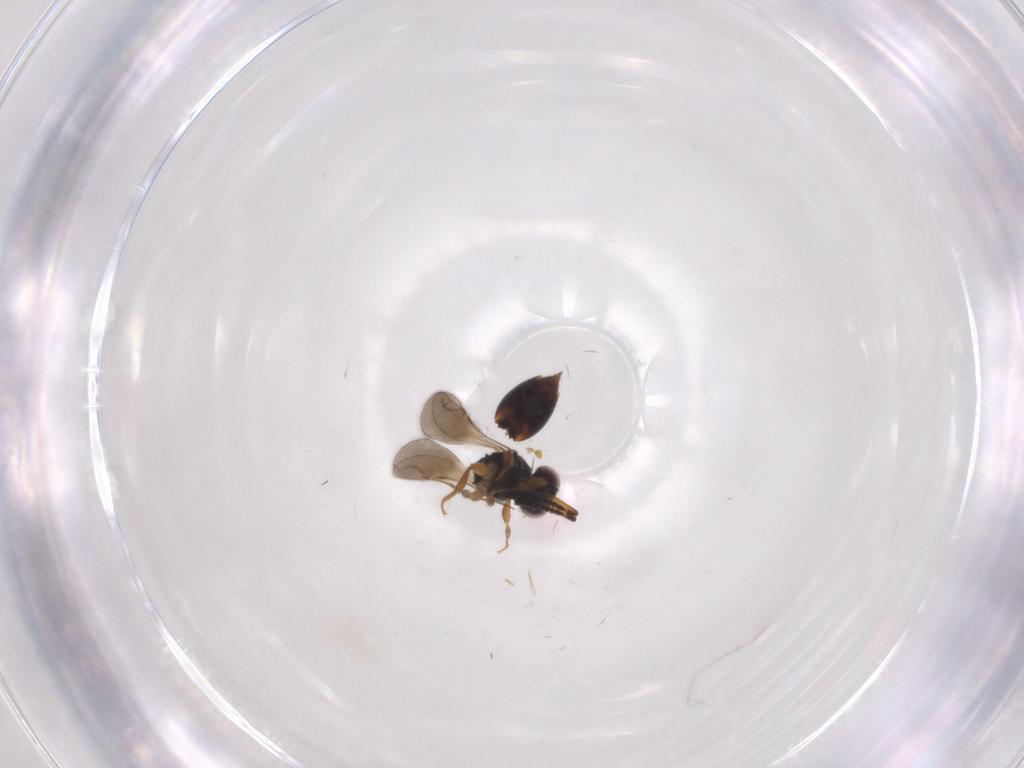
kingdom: Animalia
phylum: Arthropoda
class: Insecta
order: Hymenoptera
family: Ceraphronidae
